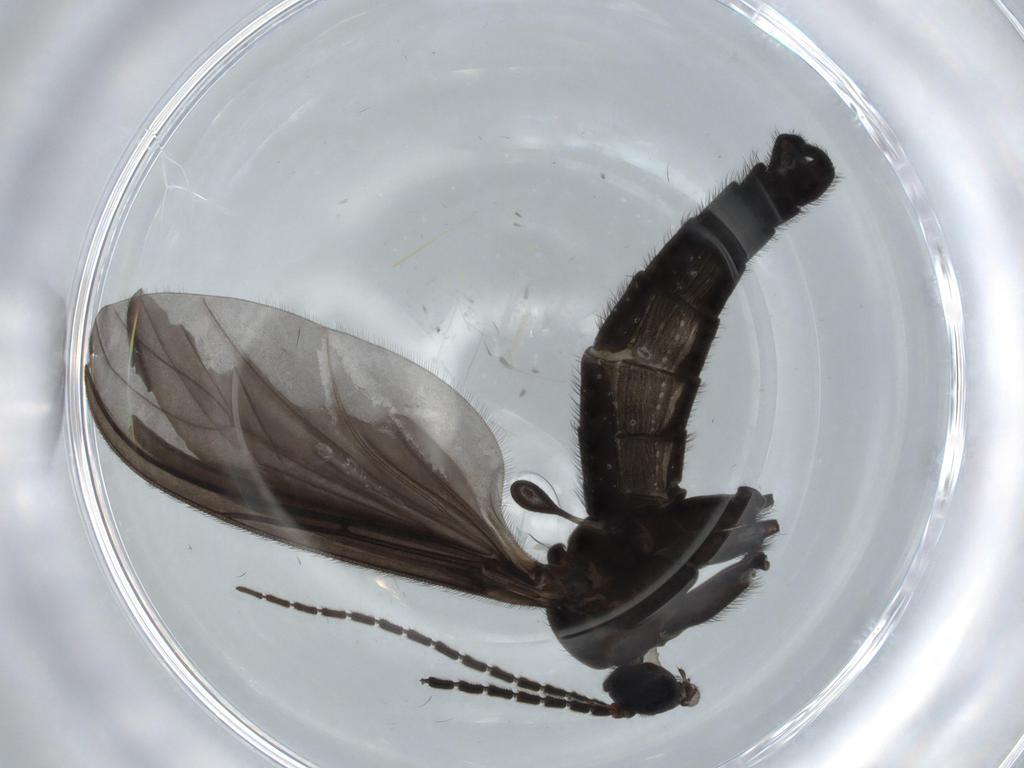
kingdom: Animalia
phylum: Arthropoda
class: Insecta
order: Diptera
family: Sciaridae
